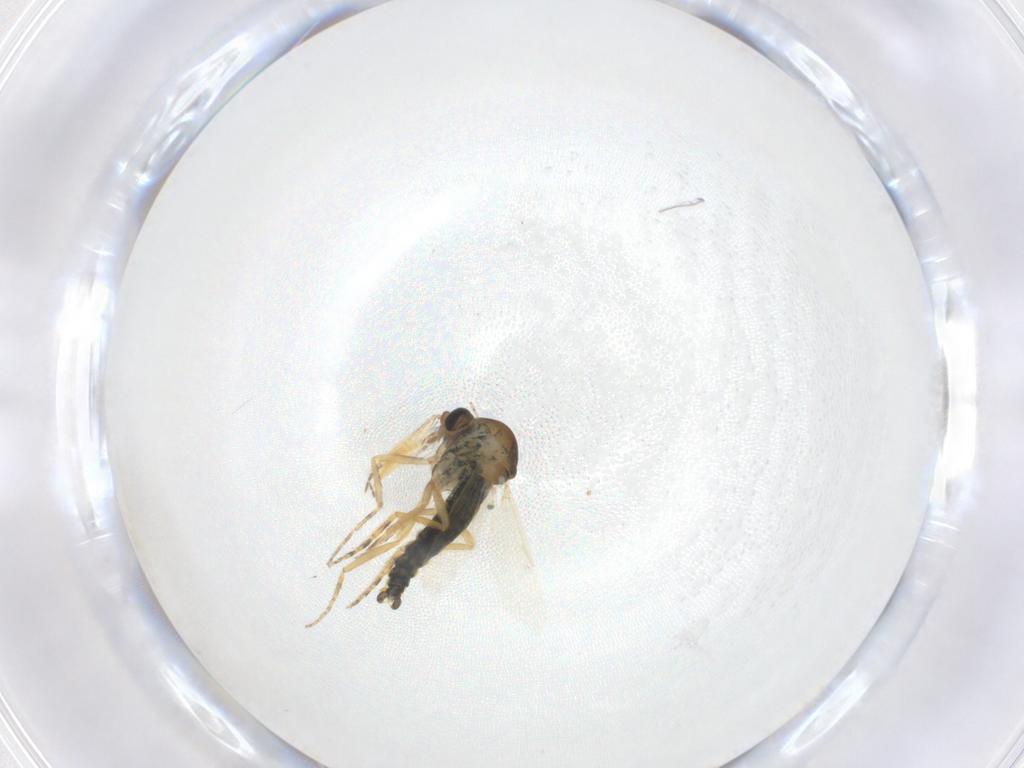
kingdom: Animalia
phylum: Arthropoda
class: Insecta
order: Diptera
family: Ceratopogonidae
